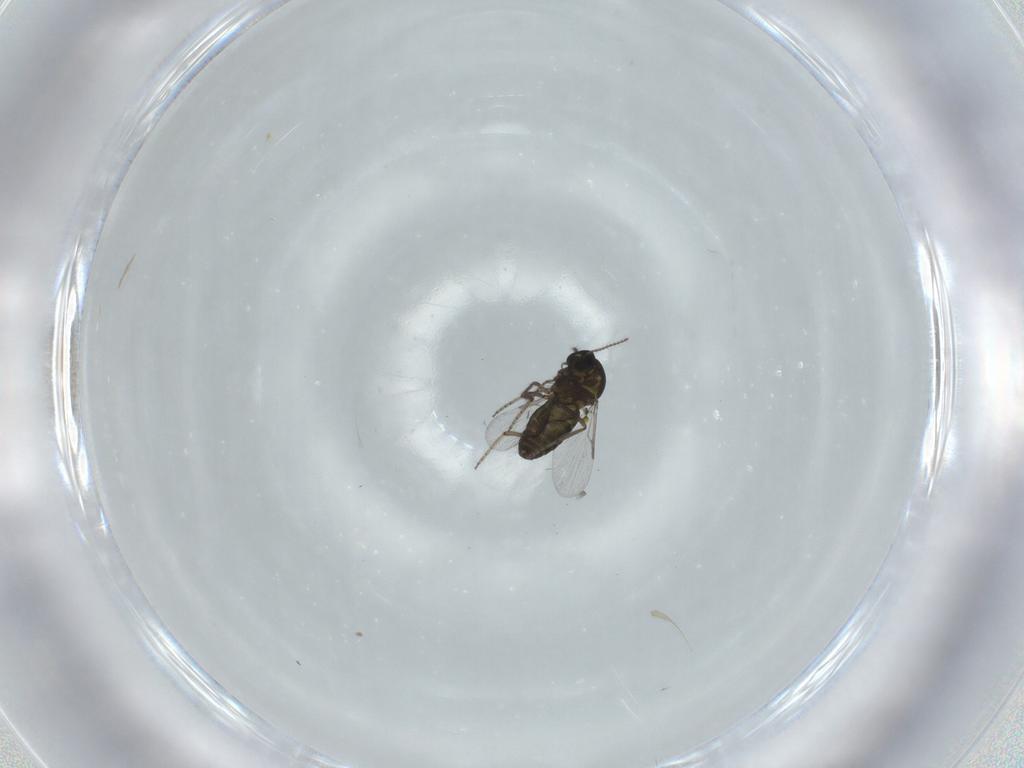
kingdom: Animalia
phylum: Arthropoda
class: Insecta
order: Diptera
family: Ceratopogonidae
